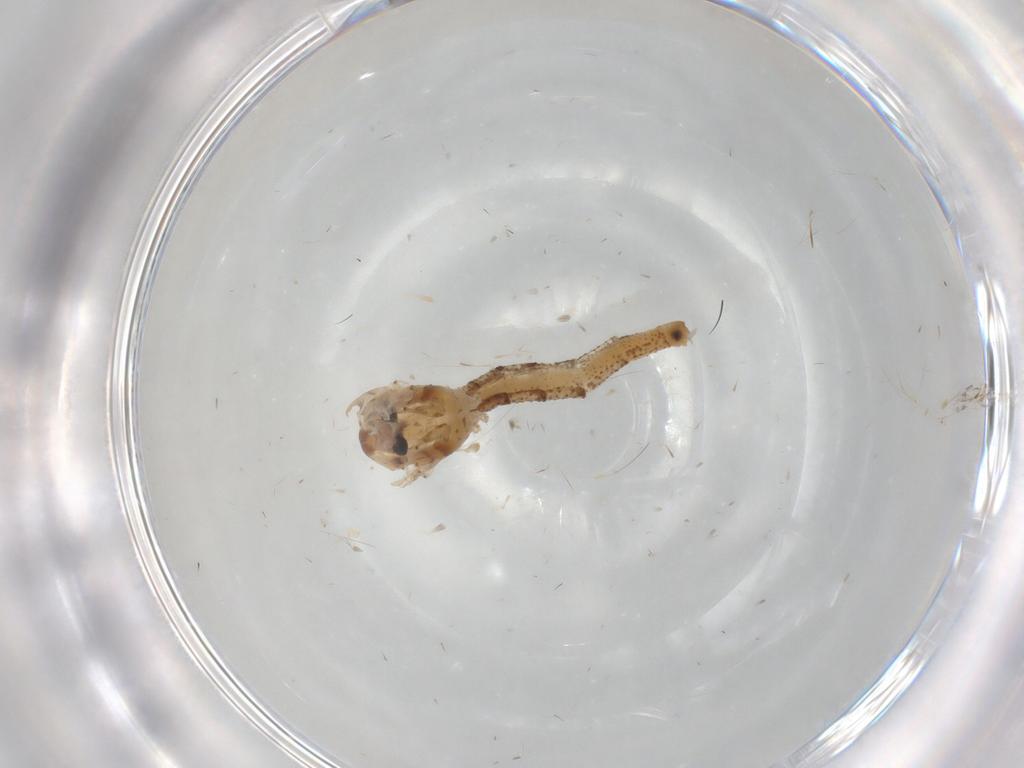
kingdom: Animalia
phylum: Arthropoda
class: Insecta
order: Diptera
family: Chaoboridae
